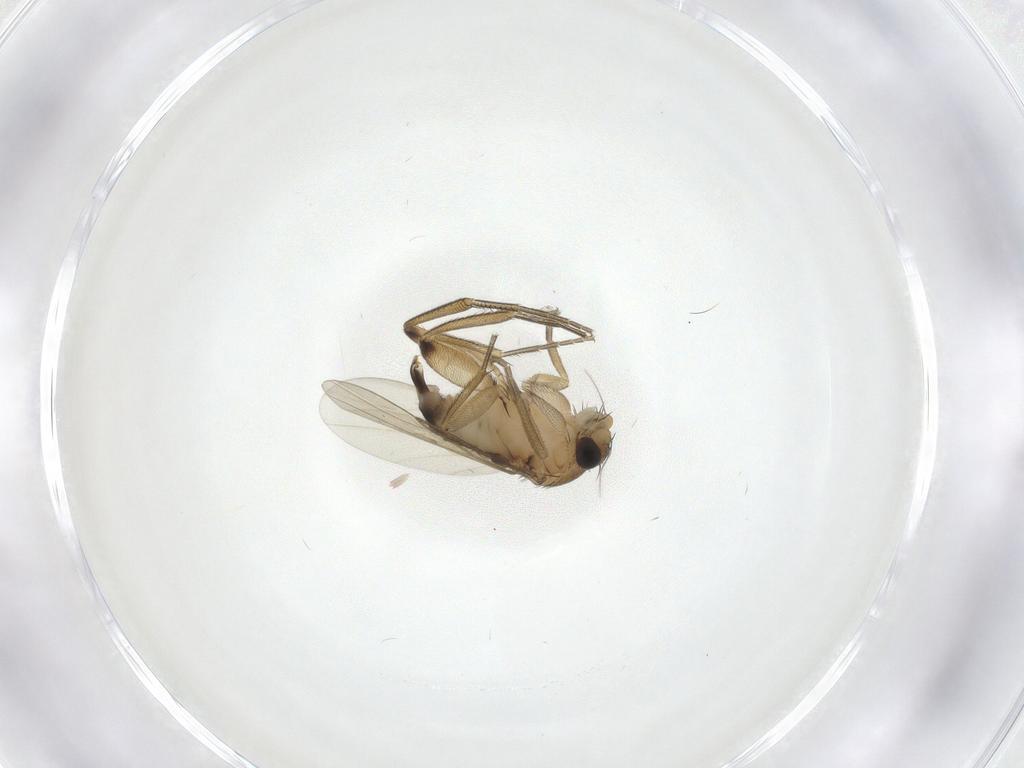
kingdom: Animalia
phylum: Arthropoda
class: Insecta
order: Diptera
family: Phoridae
